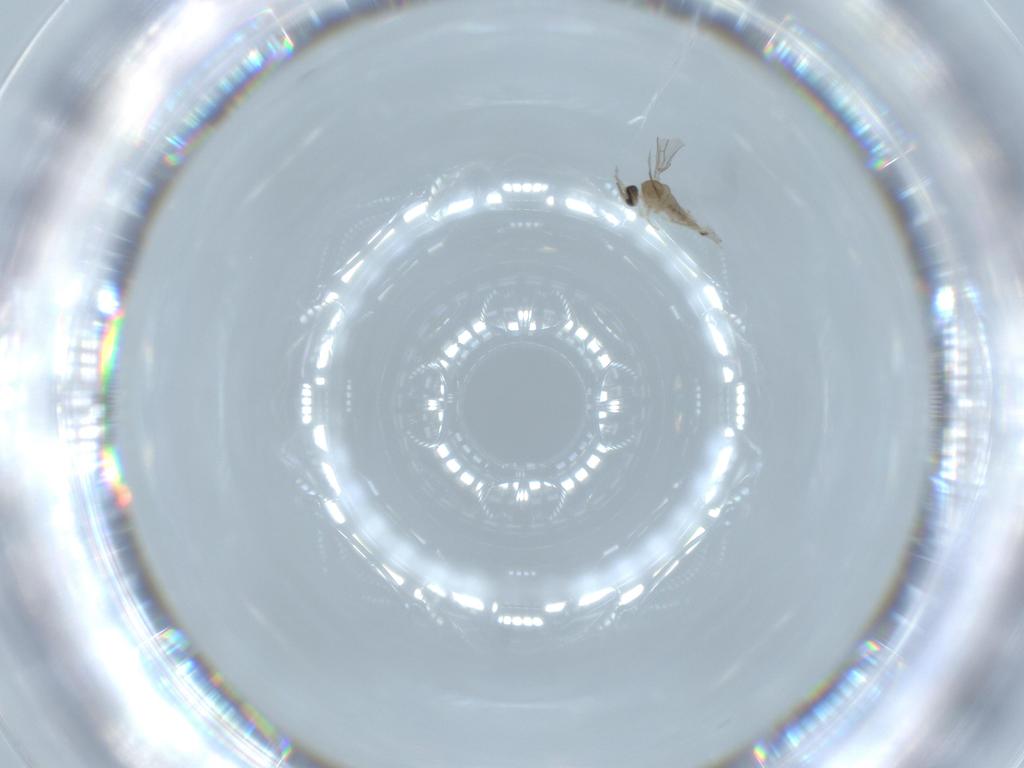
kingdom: Animalia
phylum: Arthropoda
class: Insecta
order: Diptera
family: Cecidomyiidae
